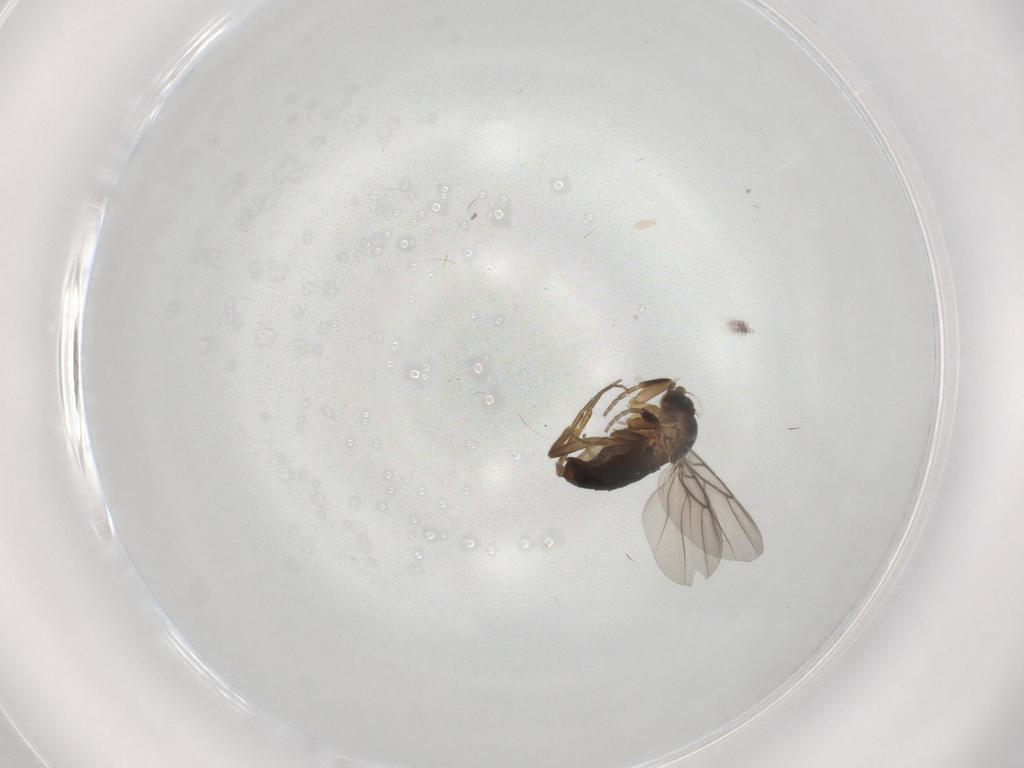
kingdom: Animalia
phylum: Arthropoda
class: Insecta
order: Diptera
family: Phoridae
